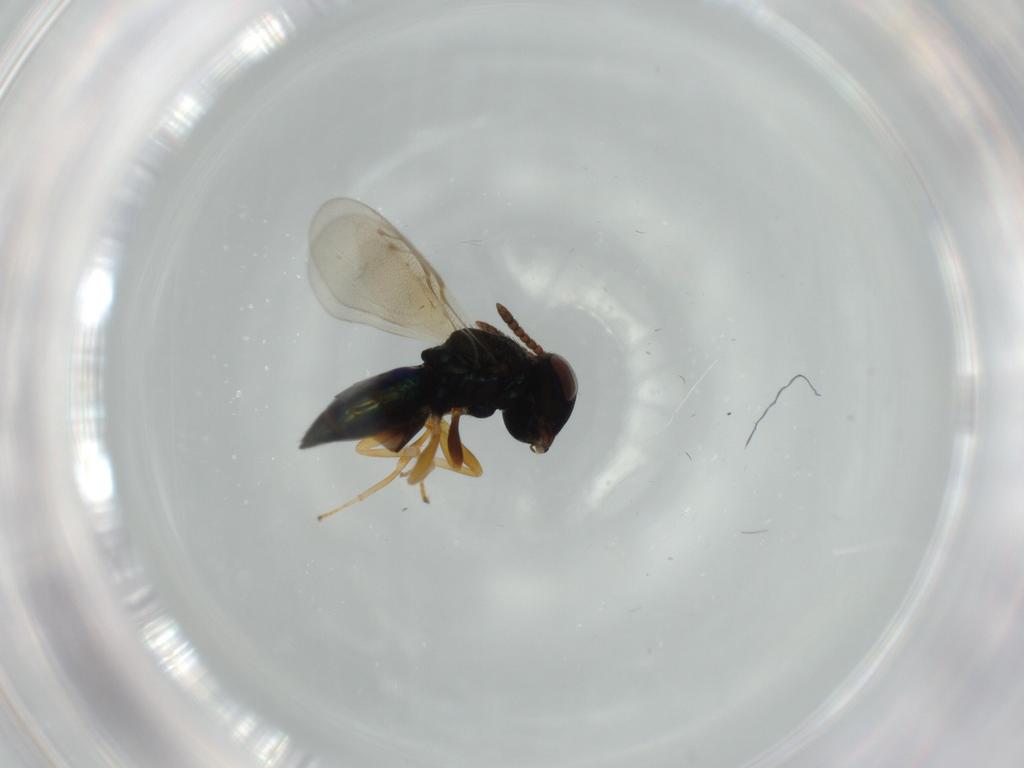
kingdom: Animalia
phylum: Arthropoda
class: Insecta
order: Hymenoptera
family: Pteromalidae
